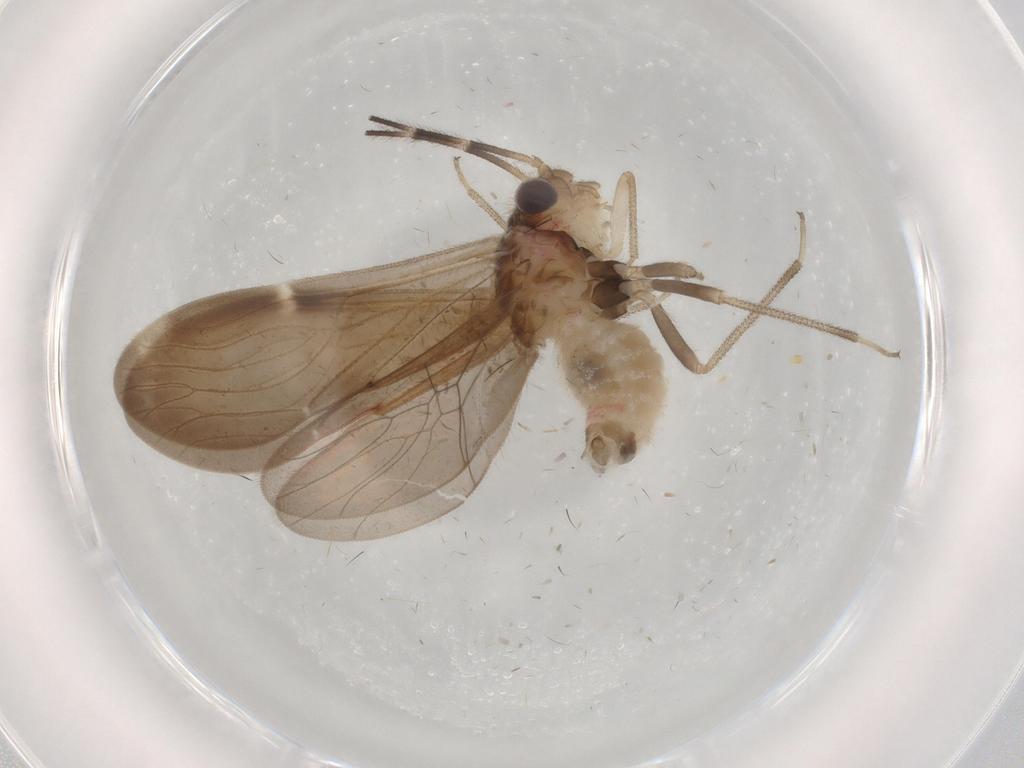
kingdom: Animalia
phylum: Arthropoda
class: Insecta
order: Psocodea
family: Amphipsocidae
